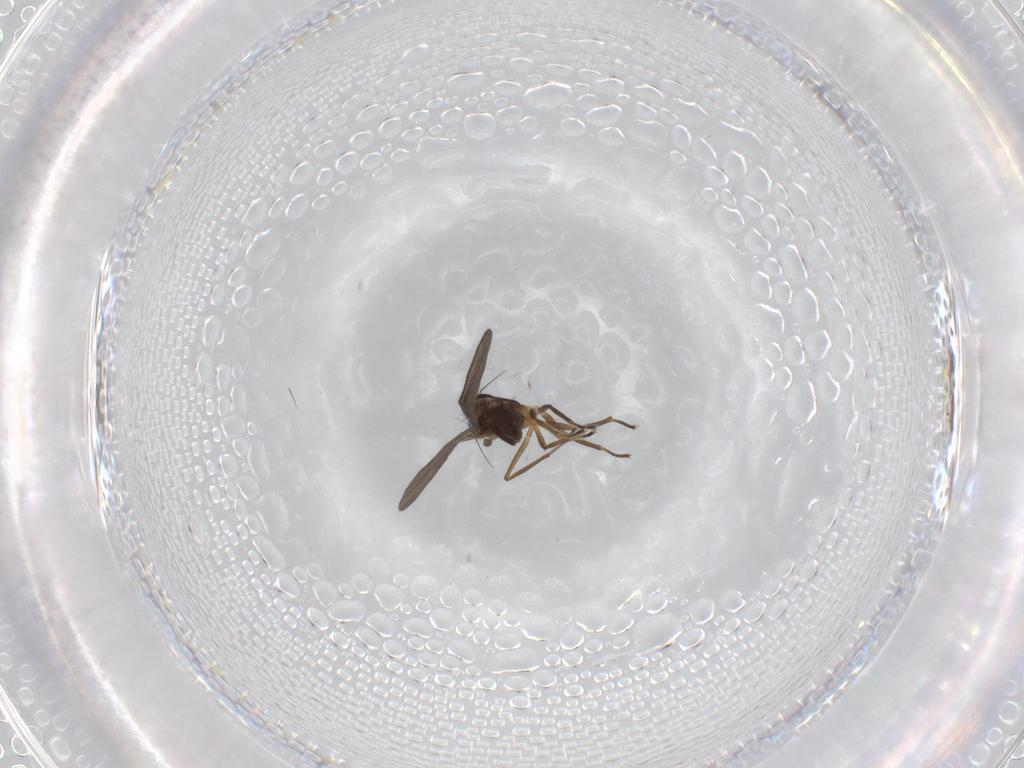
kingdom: Animalia
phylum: Arthropoda
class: Insecta
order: Diptera
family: Empididae
